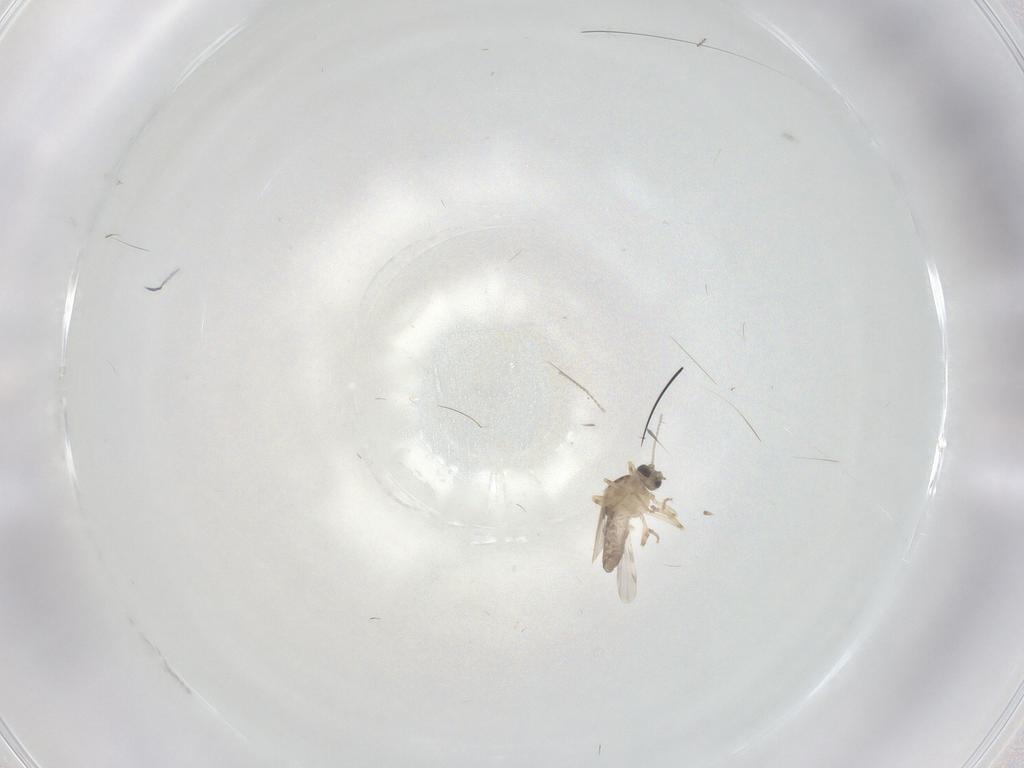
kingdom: Animalia
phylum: Arthropoda
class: Insecta
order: Diptera
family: Ceratopogonidae
